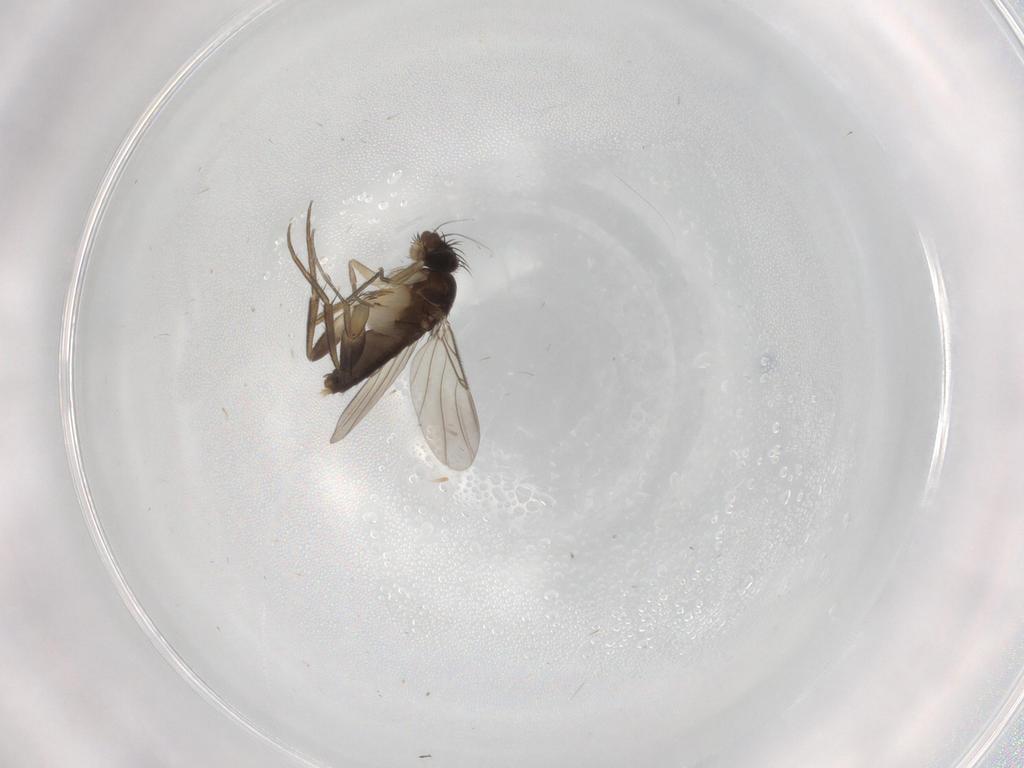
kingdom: Animalia
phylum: Arthropoda
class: Insecta
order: Diptera
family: Phoridae
